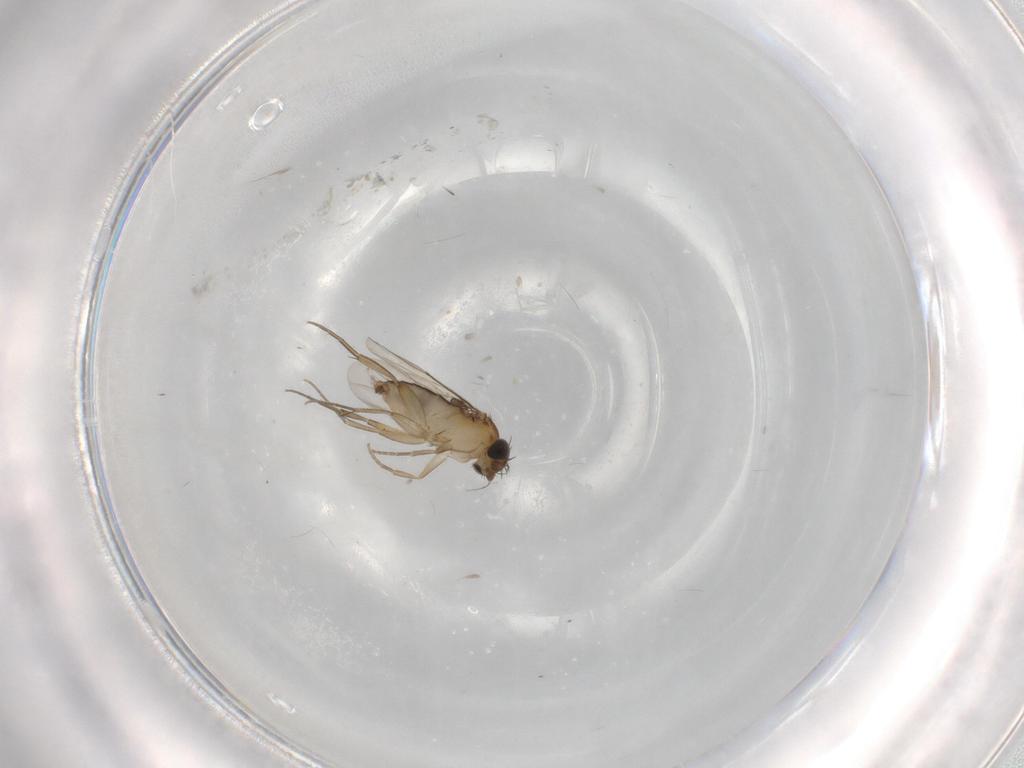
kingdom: Animalia
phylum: Arthropoda
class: Insecta
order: Diptera
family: Phoridae
